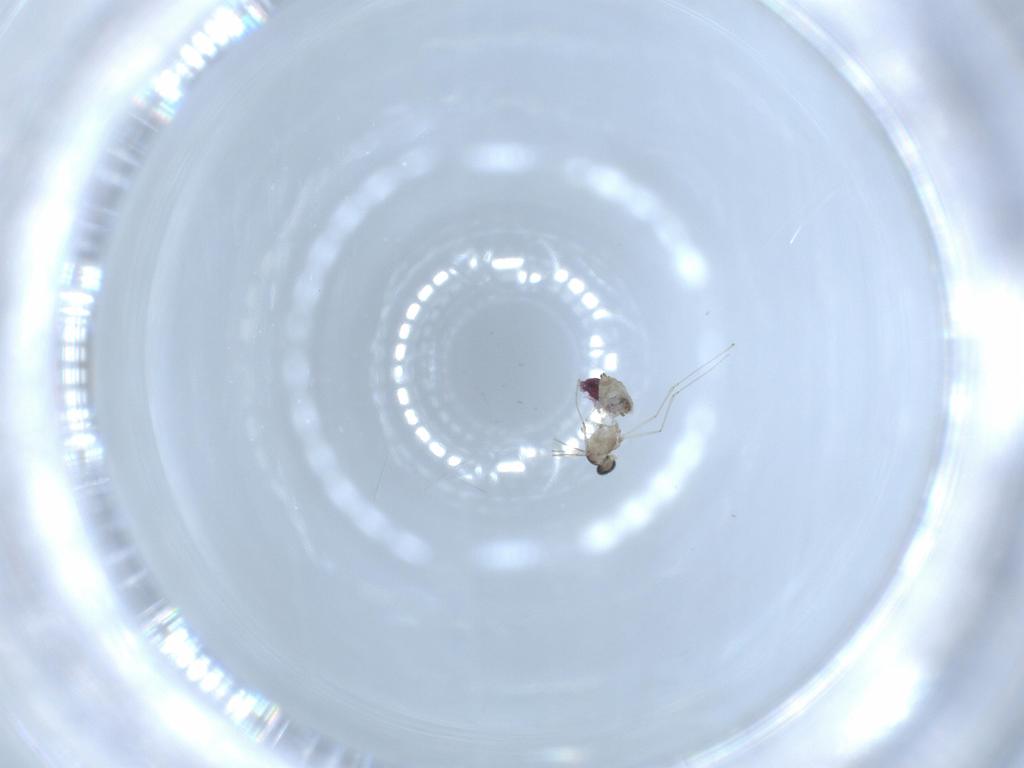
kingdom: Animalia
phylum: Arthropoda
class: Insecta
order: Diptera
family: Cecidomyiidae
